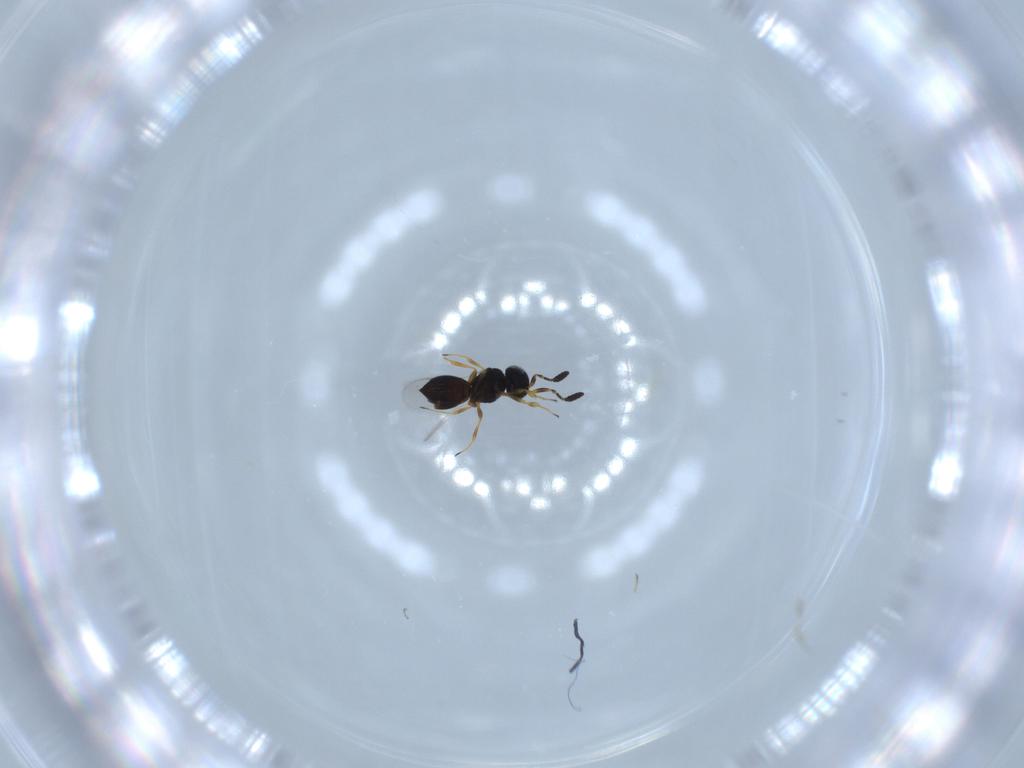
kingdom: Animalia
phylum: Arthropoda
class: Insecta
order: Hymenoptera
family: Scelionidae
